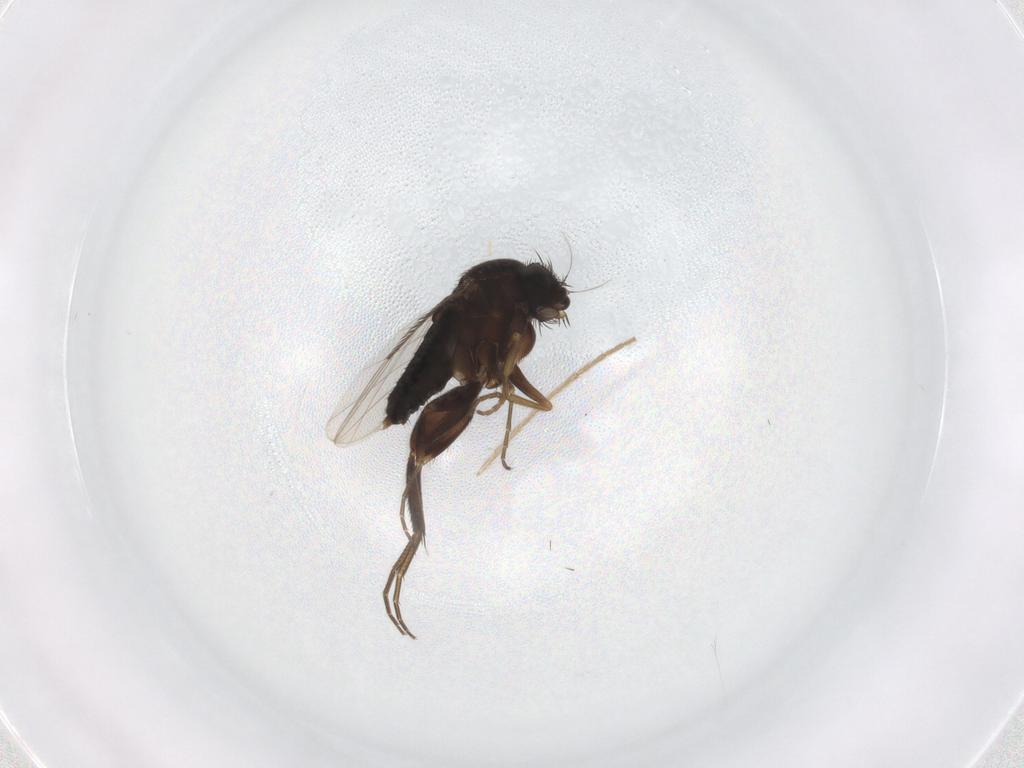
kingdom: Animalia
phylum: Arthropoda
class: Insecta
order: Diptera
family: Phoridae
